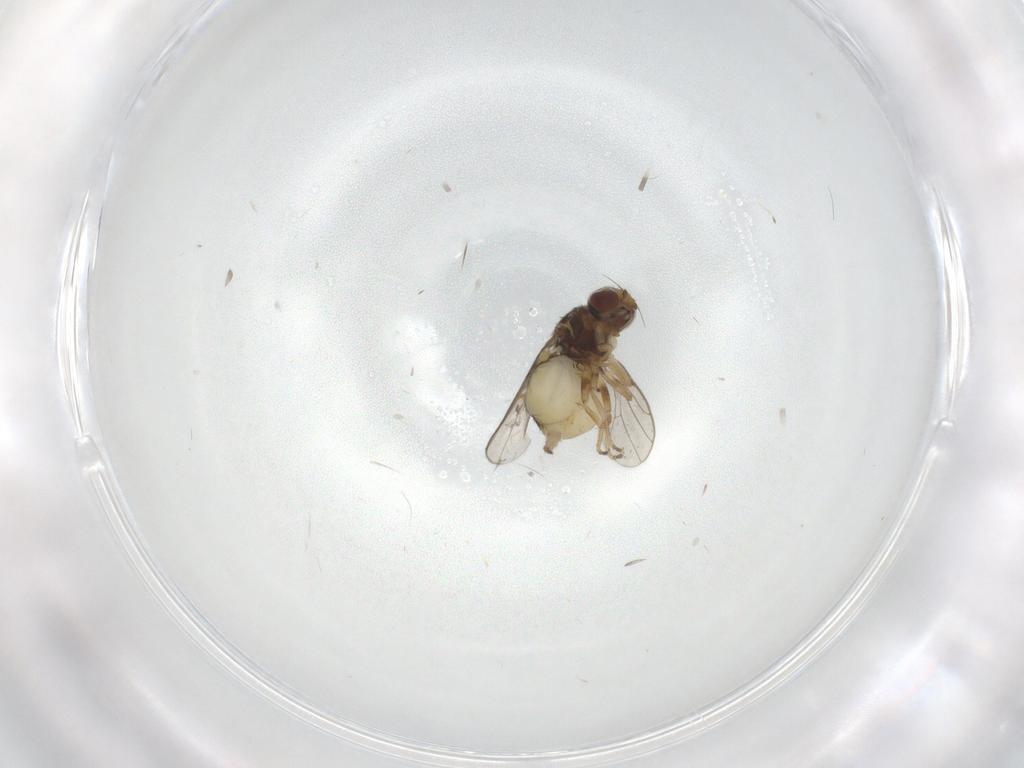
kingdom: Animalia
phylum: Arthropoda
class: Insecta
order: Diptera
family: Chloropidae
